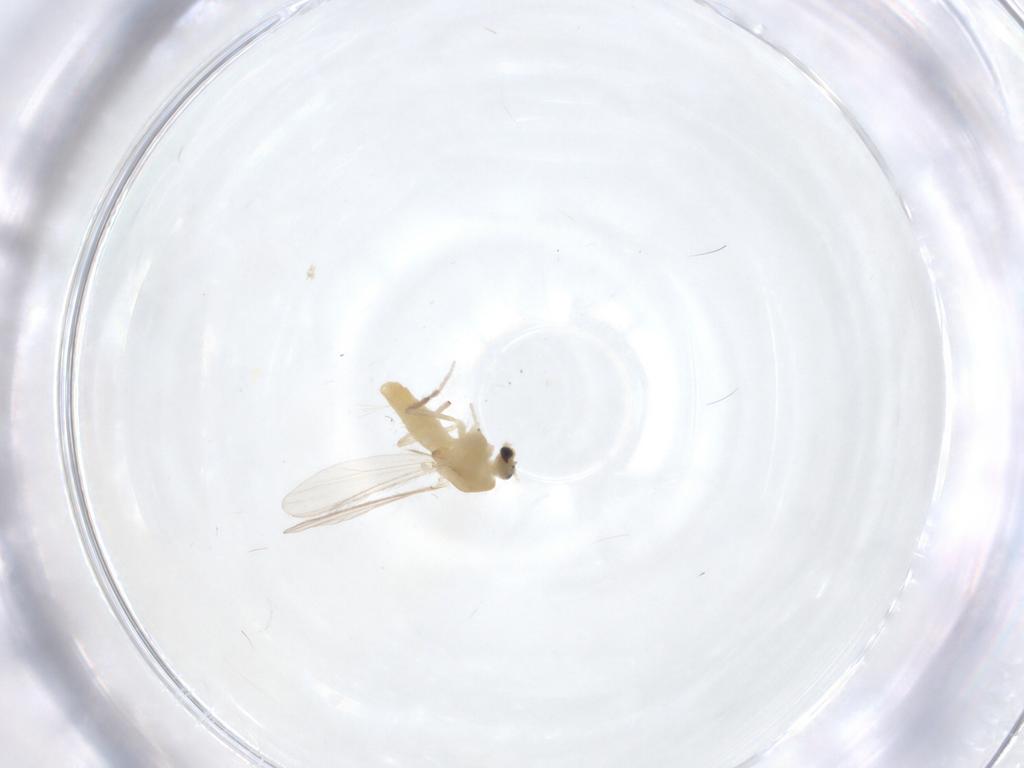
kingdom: Animalia
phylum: Arthropoda
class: Insecta
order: Diptera
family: Chironomidae
